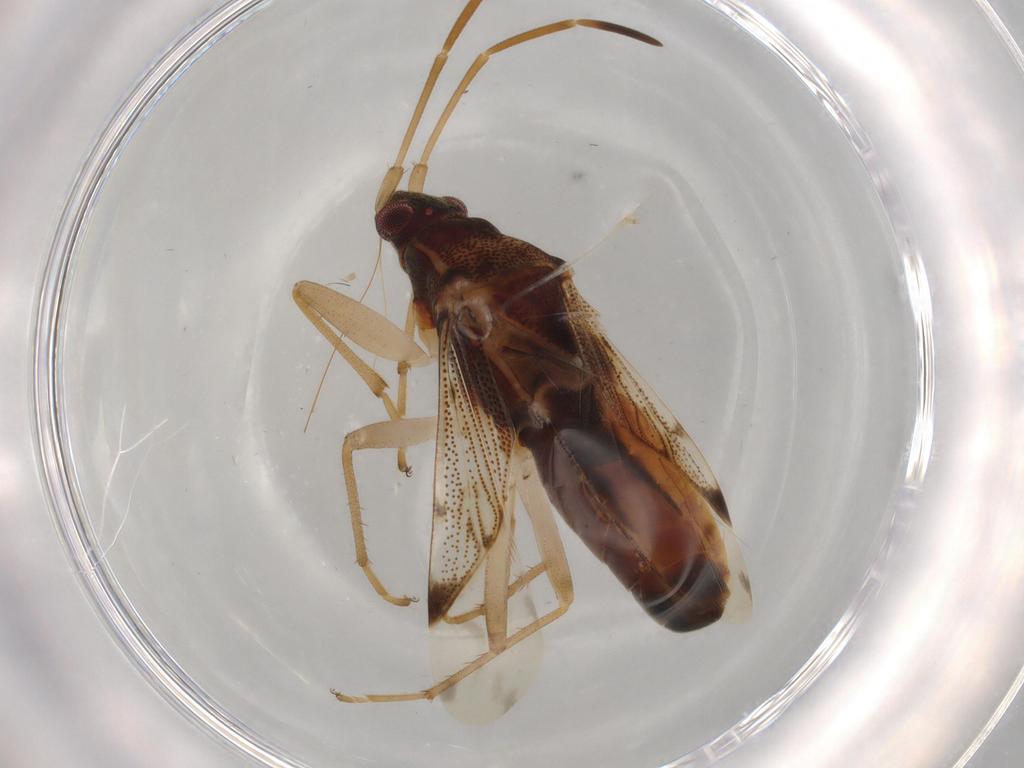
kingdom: Animalia
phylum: Arthropoda
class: Insecta
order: Hemiptera
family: Rhyparochromidae
